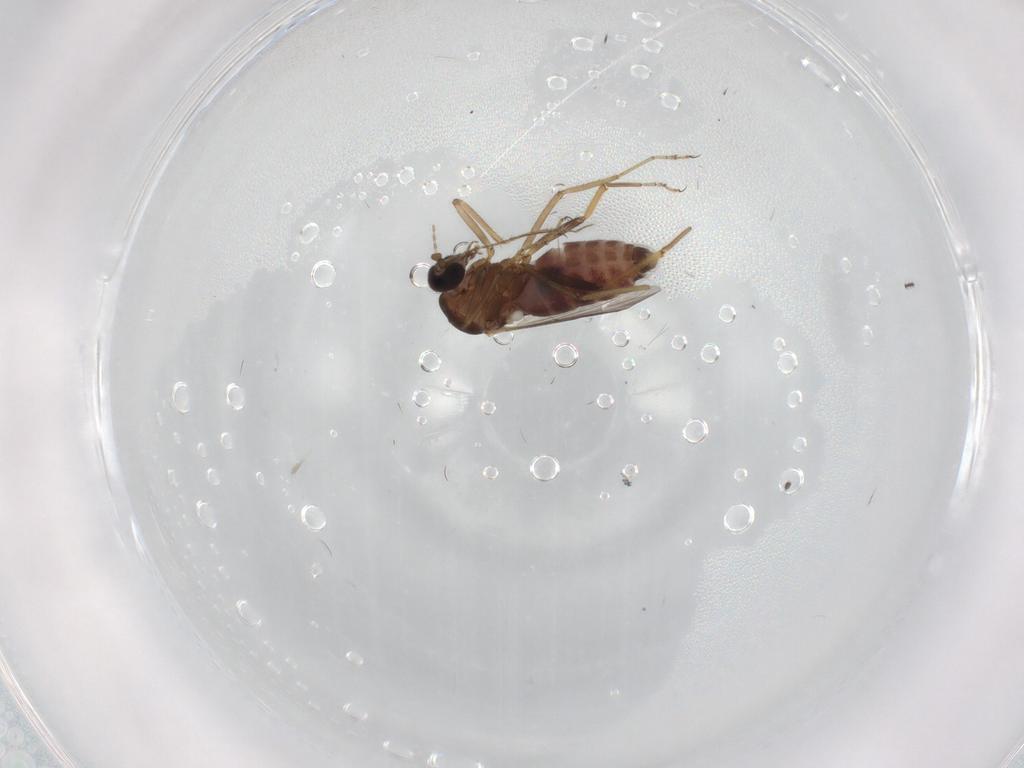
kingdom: Animalia
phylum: Arthropoda
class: Insecta
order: Diptera
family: Ceratopogonidae
